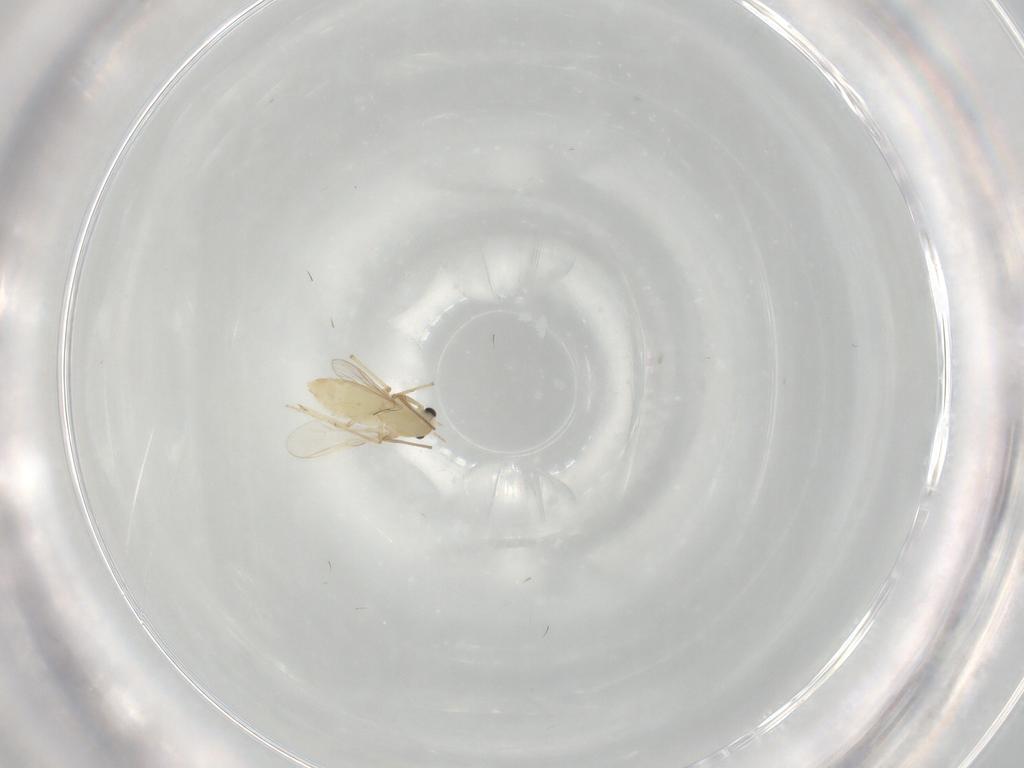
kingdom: Animalia
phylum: Arthropoda
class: Insecta
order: Diptera
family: Chironomidae
